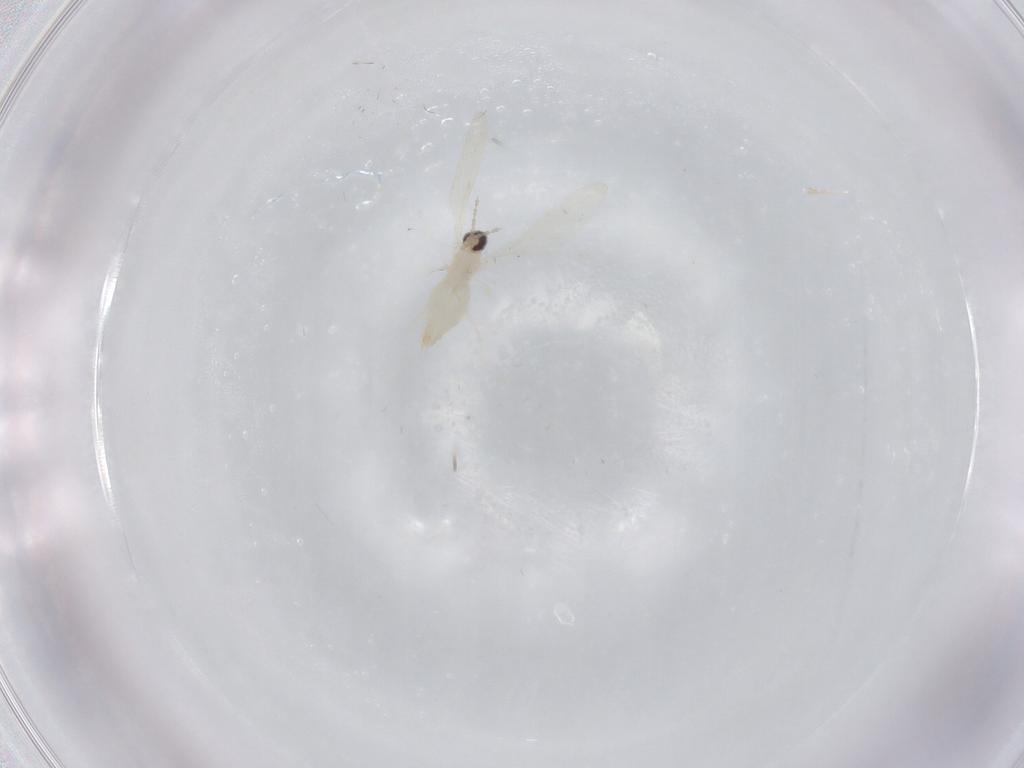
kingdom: Animalia
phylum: Arthropoda
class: Insecta
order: Diptera
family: Cecidomyiidae
